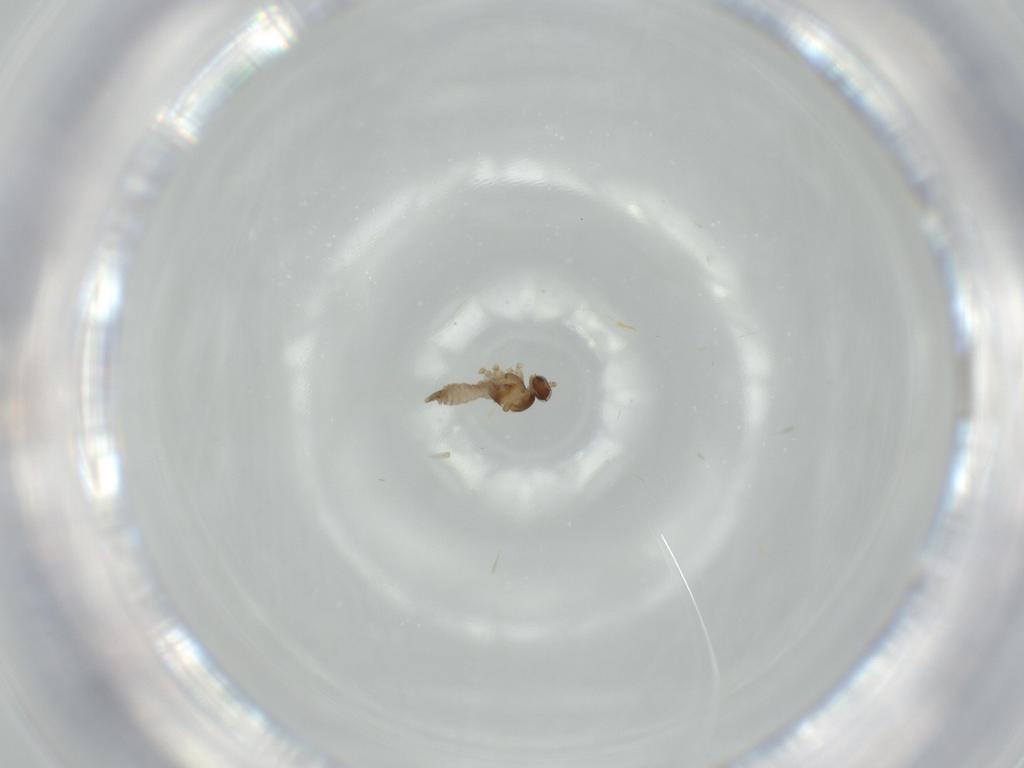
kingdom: Animalia
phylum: Arthropoda
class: Insecta
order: Diptera
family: Cecidomyiidae
